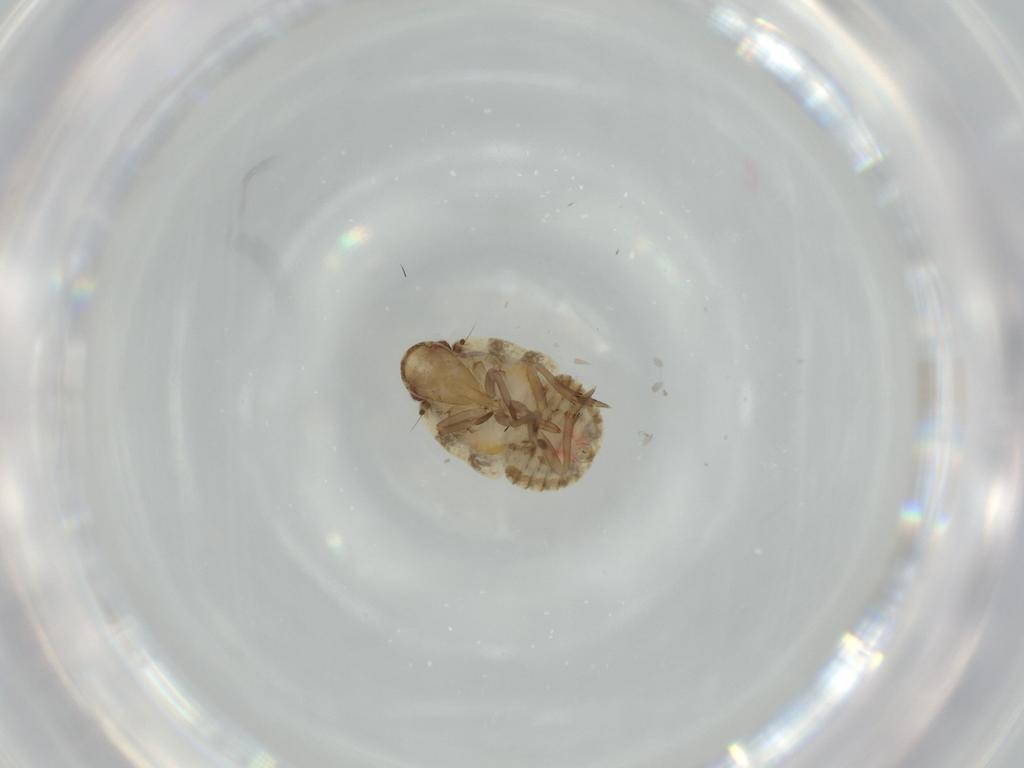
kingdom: Animalia
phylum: Arthropoda
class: Insecta
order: Hemiptera
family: Flatidae
